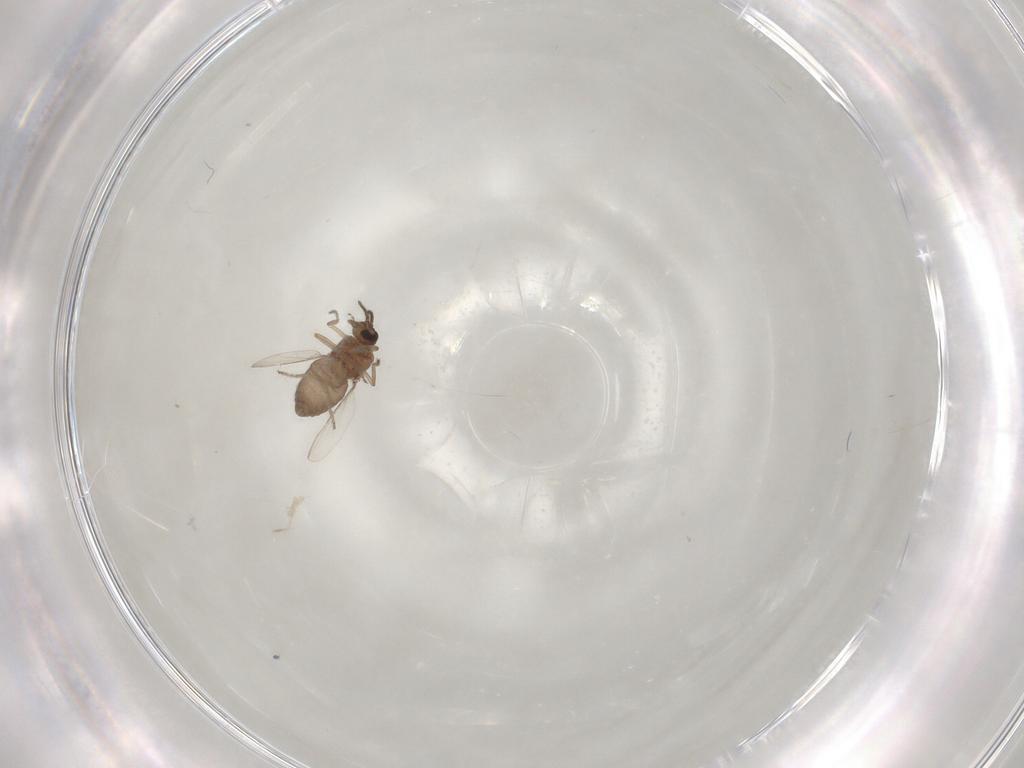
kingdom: Animalia
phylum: Arthropoda
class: Insecta
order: Diptera
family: Ceratopogonidae
